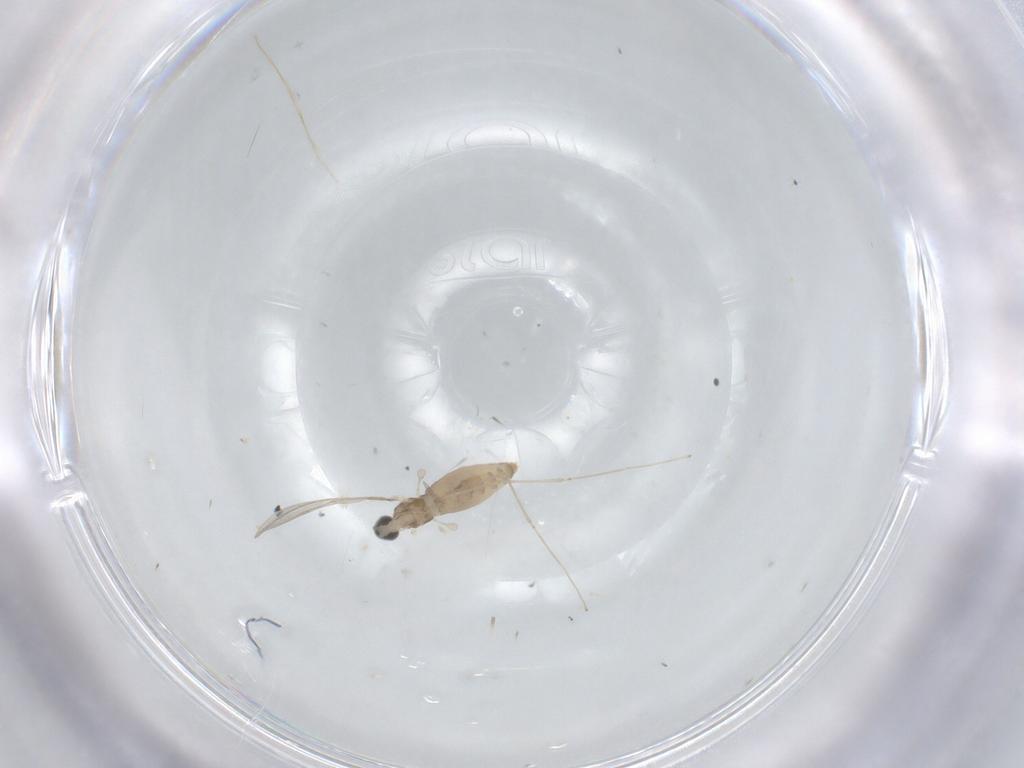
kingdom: Animalia
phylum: Arthropoda
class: Insecta
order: Diptera
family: Cecidomyiidae
